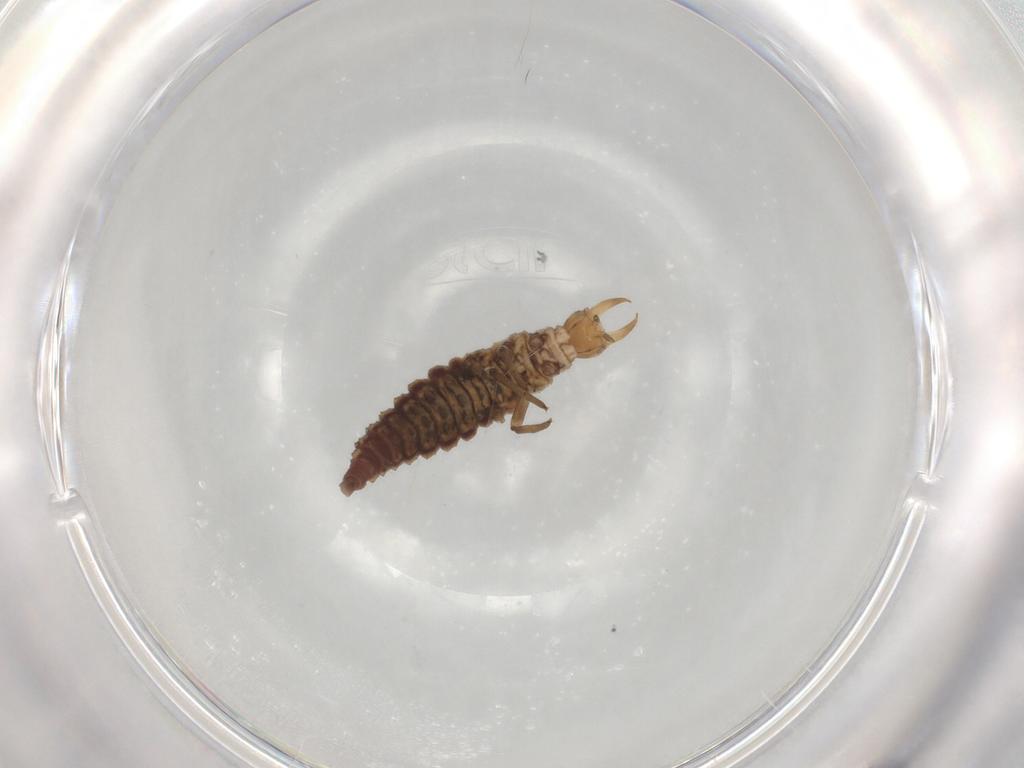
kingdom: Animalia
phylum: Arthropoda
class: Insecta
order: Neuroptera
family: Hemerobiidae
